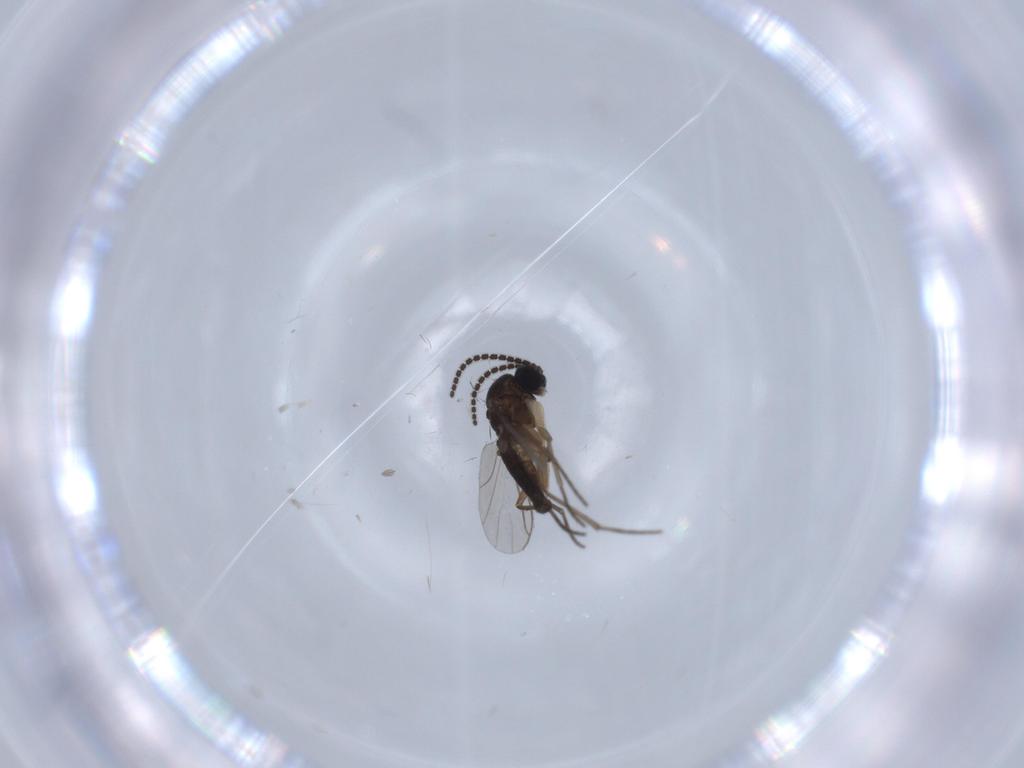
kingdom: Animalia
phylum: Arthropoda
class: Insecta
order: Diptera
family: Sciaridae
